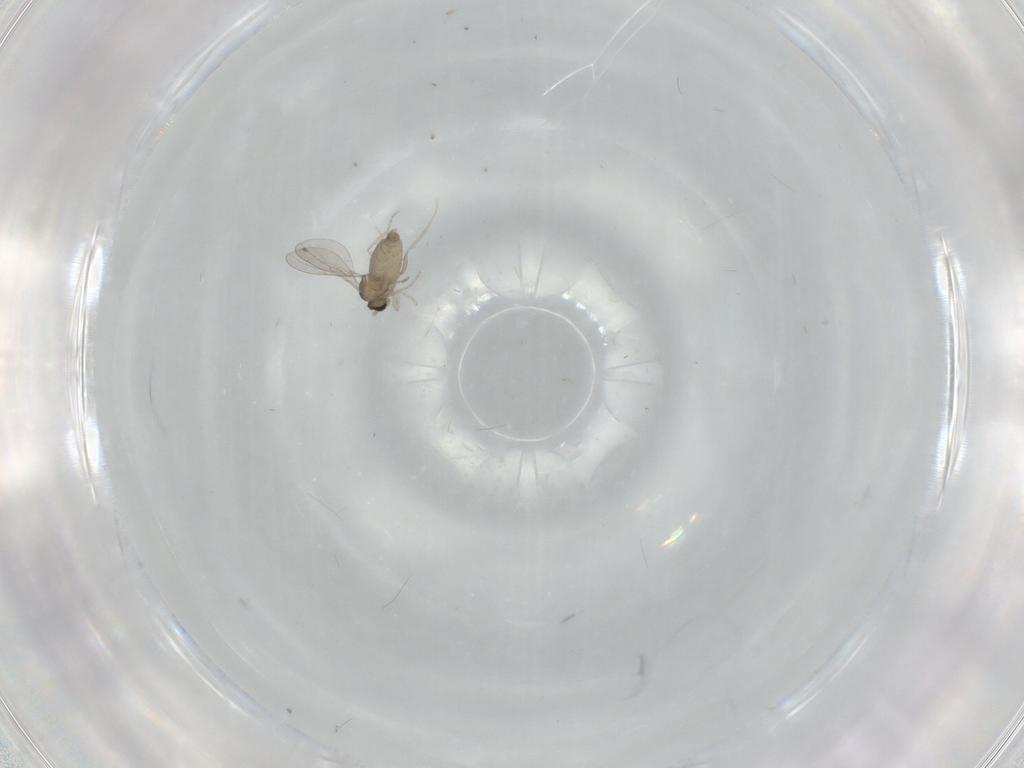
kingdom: Animalia
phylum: Arthropoda
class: Insecta
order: Diptera
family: Cecidomyiidae
